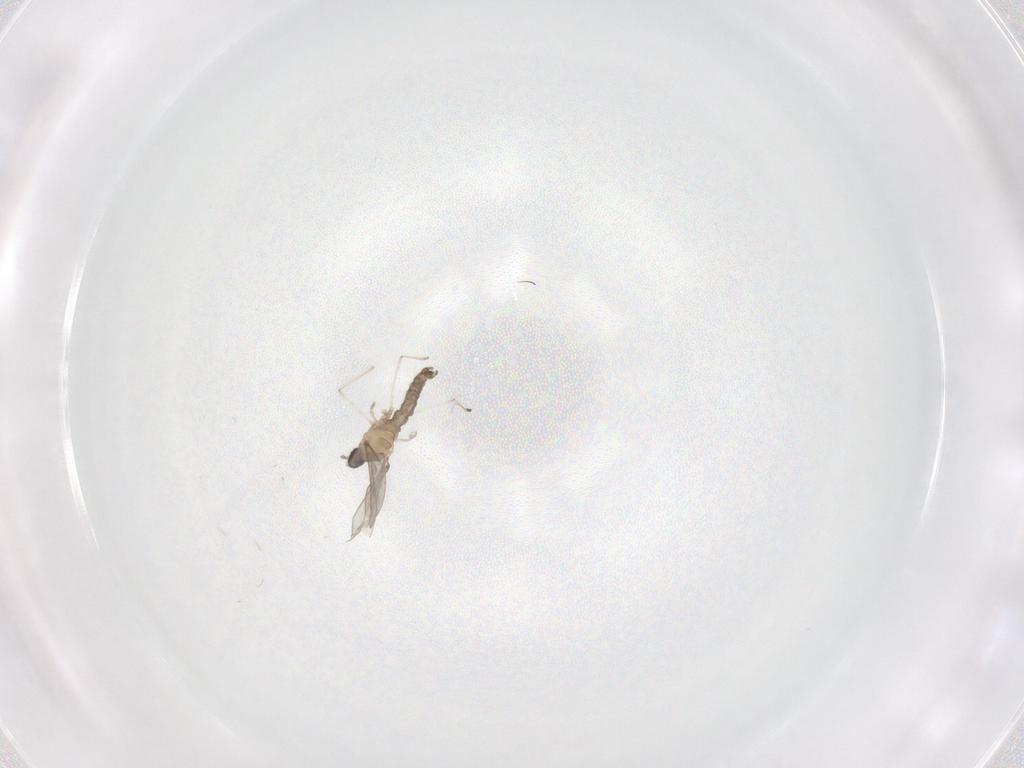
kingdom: Animalia
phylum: Arthropoda
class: Insecta
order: Diptera
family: Cecidomyiidae
